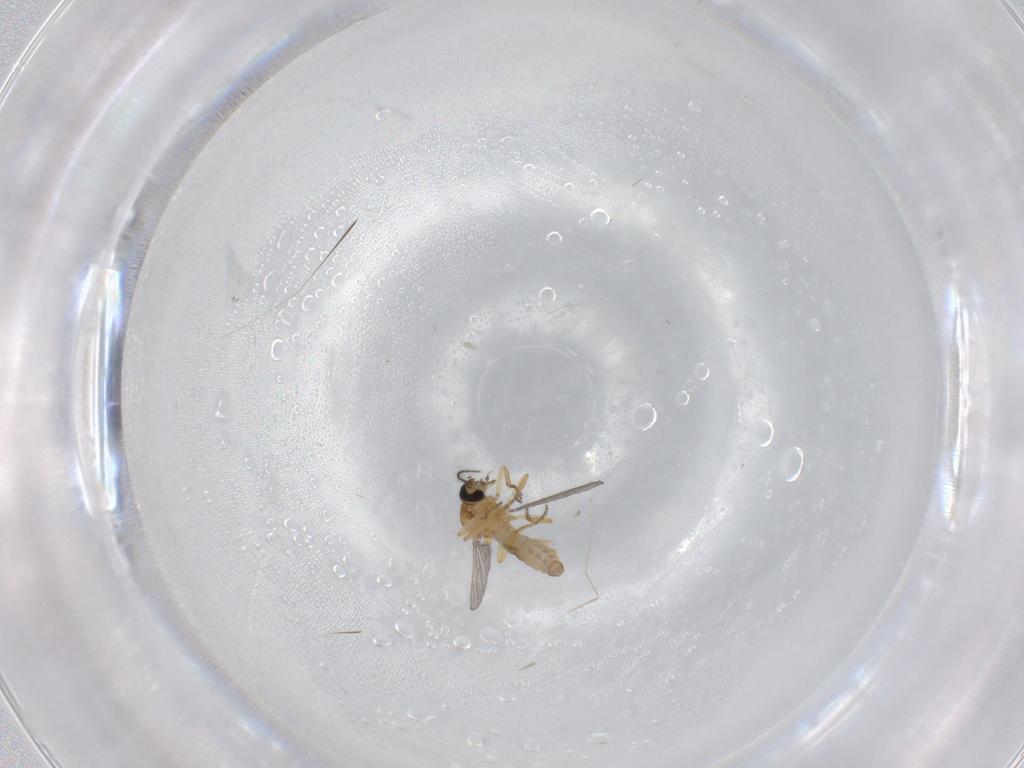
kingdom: Animalia
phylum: Arthropoda
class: Insecta
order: Diptera
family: Ceratopogonidae
